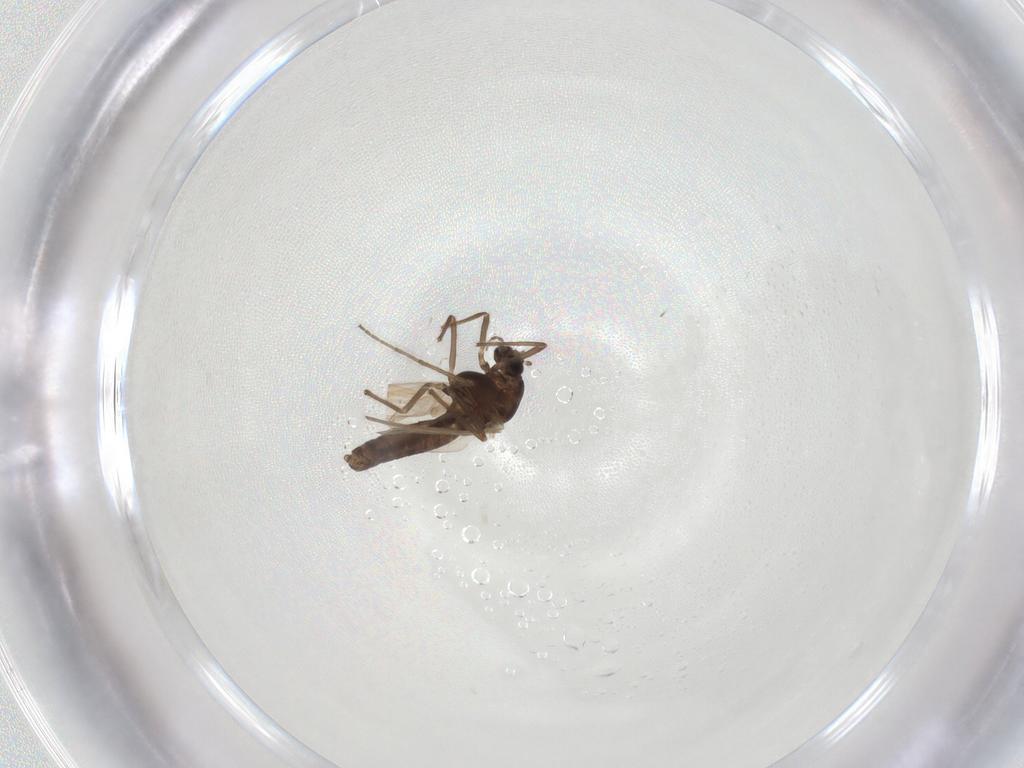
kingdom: Animalia
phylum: Arthropoda
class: Insecta
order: Diptera
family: Chironomidae
